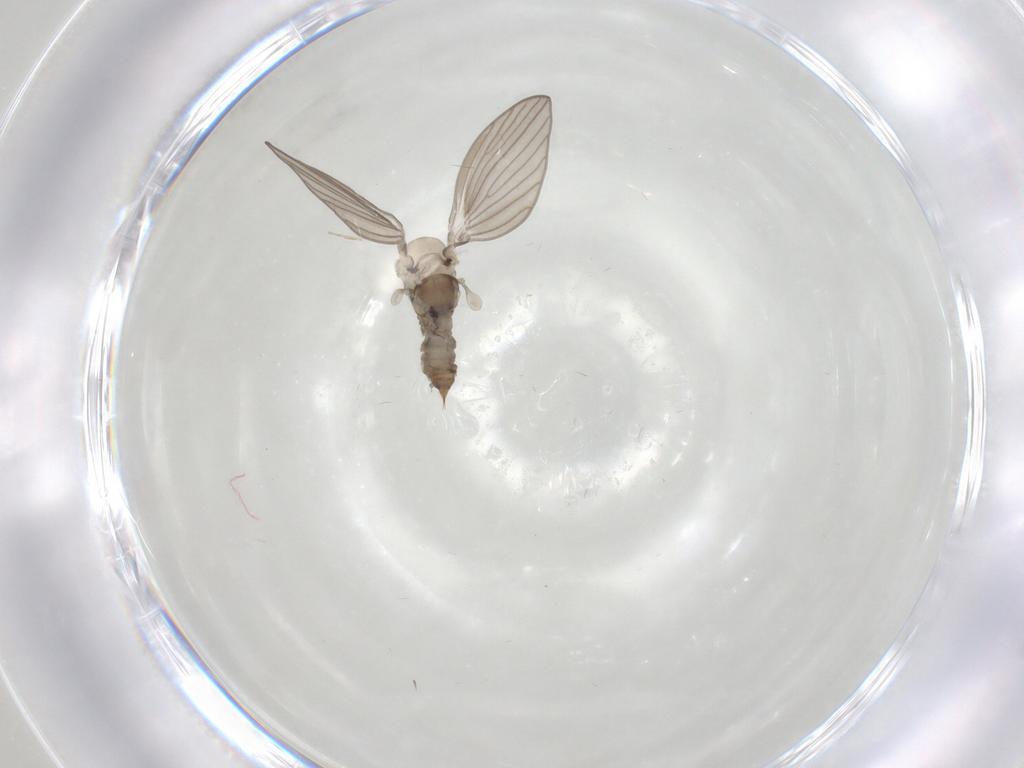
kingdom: Animalia
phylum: Arthropoda
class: Insecta
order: Diptera
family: Psychodidae
